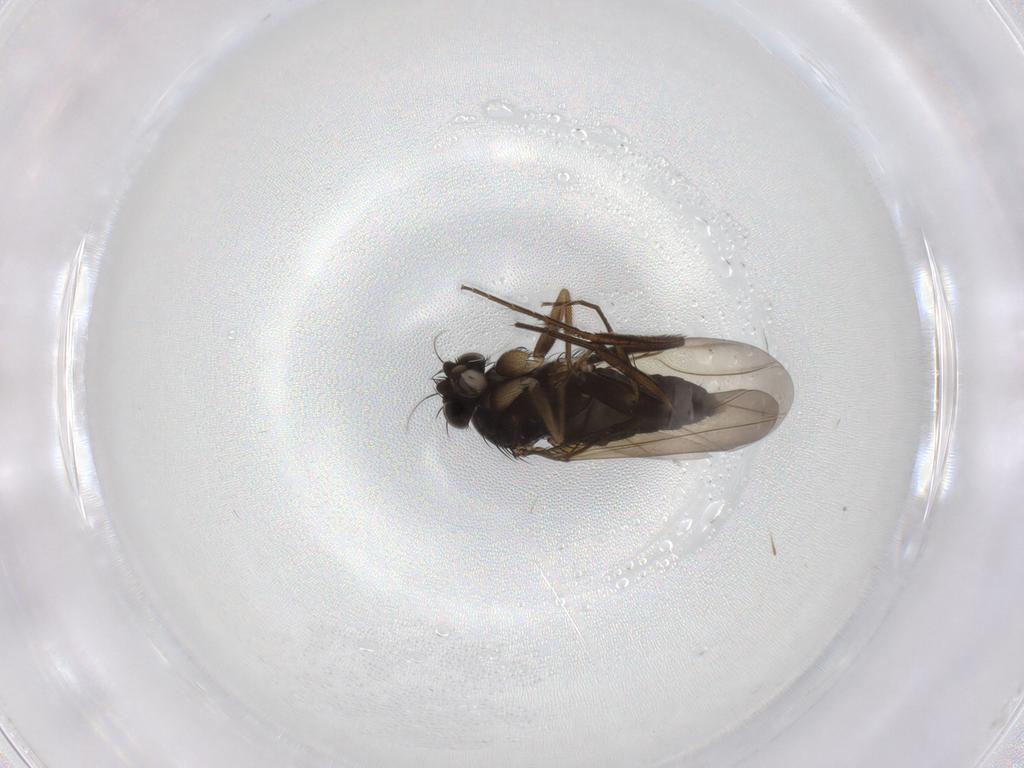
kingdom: Animalia
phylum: Arthropoda
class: Insecta
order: Diptera
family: Phoridae
